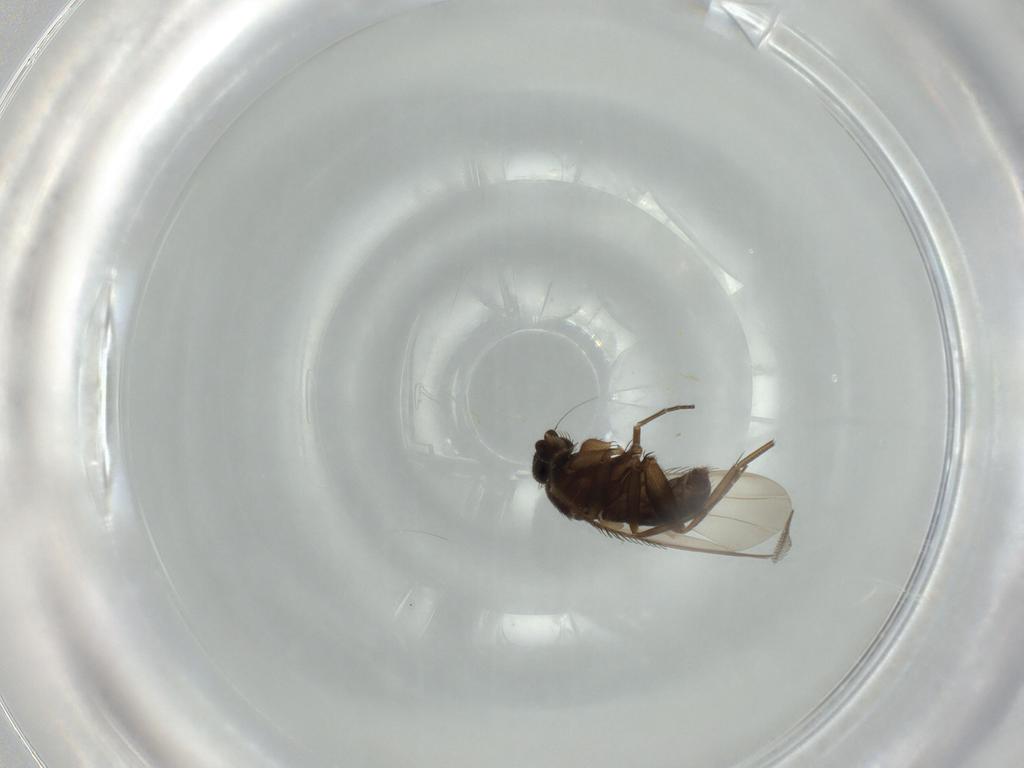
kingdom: Animalia
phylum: Arthropoda
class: Insecta
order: Diptera
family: Phoridae
